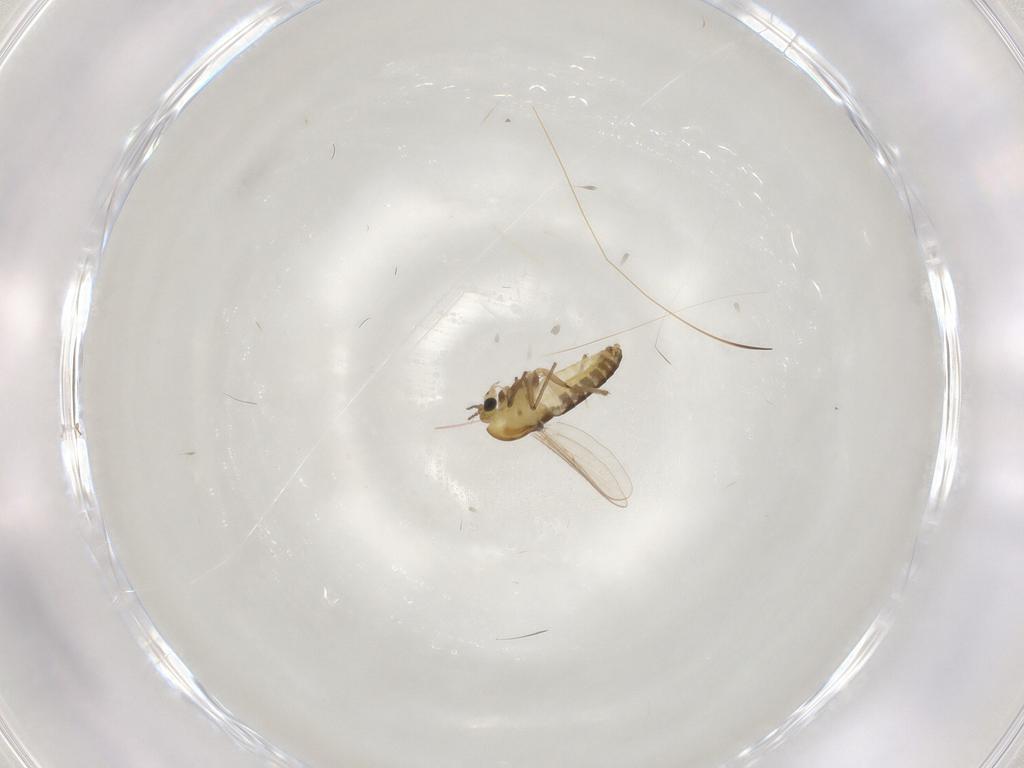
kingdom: Animalia
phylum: Arthropoda
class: Insecta
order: Diptera
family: Chironomidae
